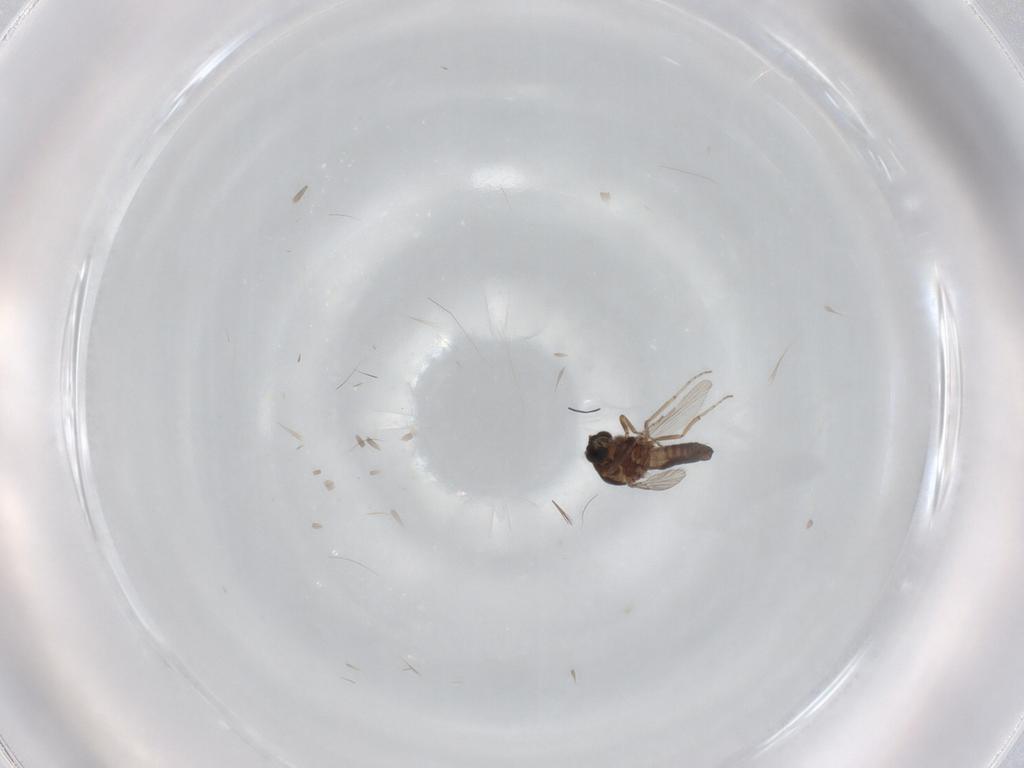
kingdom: Animalia
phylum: Arthropoda
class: Insecta
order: Diptera
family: Ceratopogonidae
